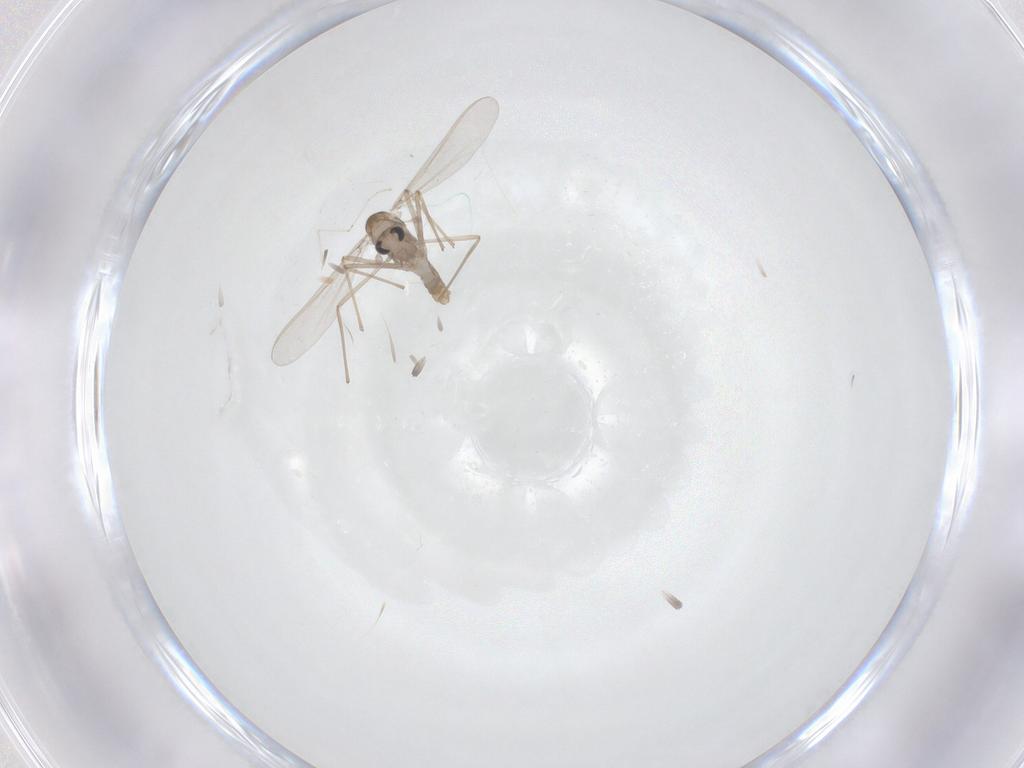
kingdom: Animalia
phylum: Arthropoda
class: Insecta
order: Diptera
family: Chironomidae
